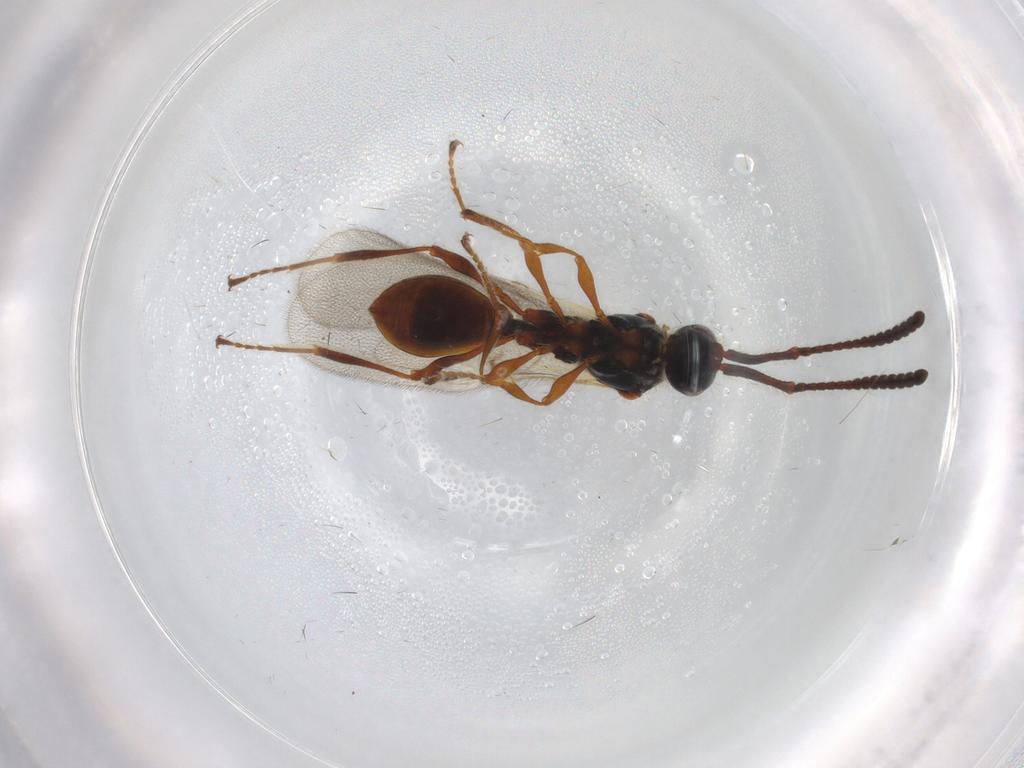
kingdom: Animalia
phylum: Arthropoda
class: Insecta
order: Hymenoptera
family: Diapriidae
